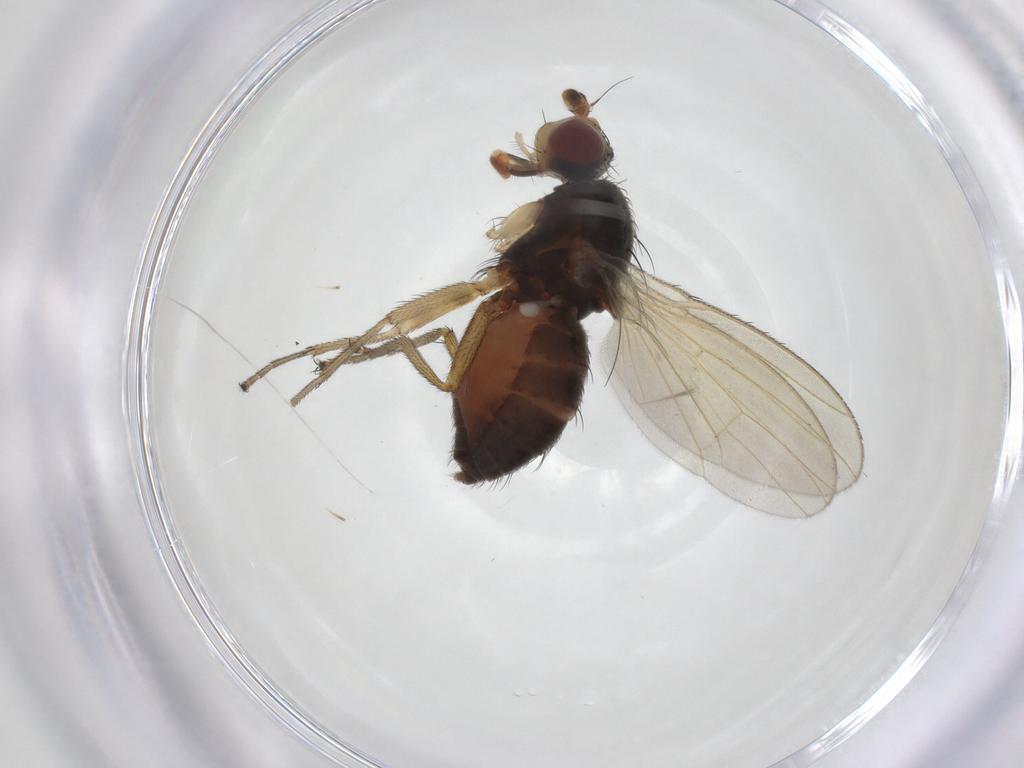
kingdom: Animalia
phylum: Arthropoda
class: Insecta
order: Diptera
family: Ulidiidae
